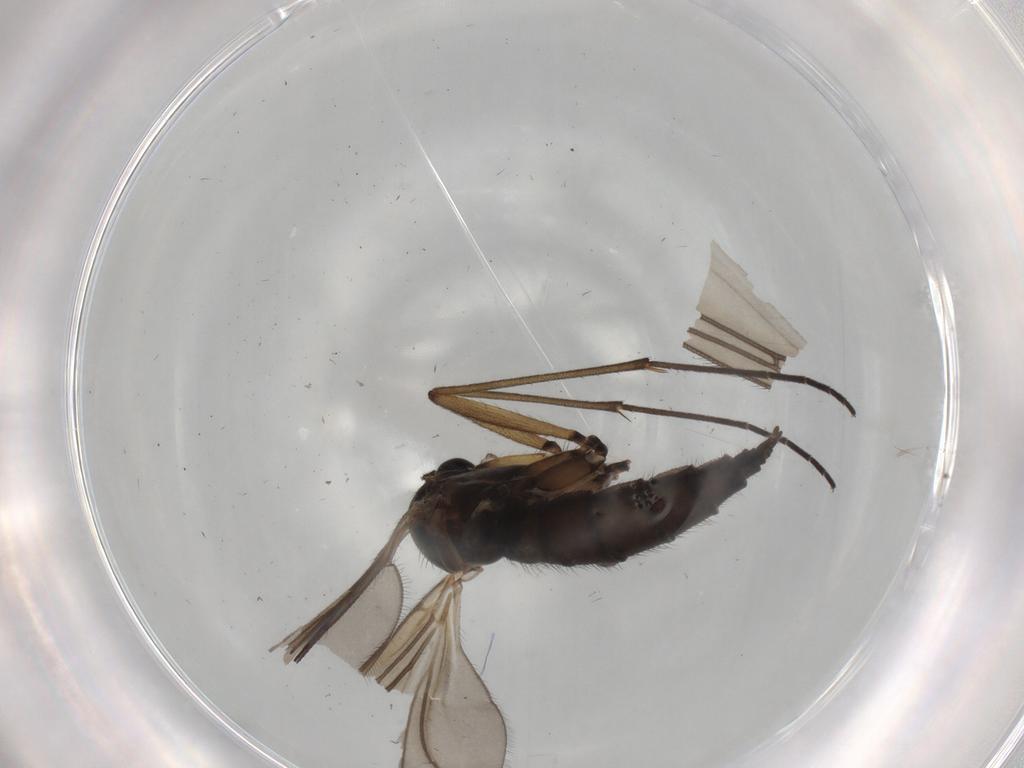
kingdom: Animalia
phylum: Arthropoda
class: Insecta
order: Diptera
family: Sciaridae
